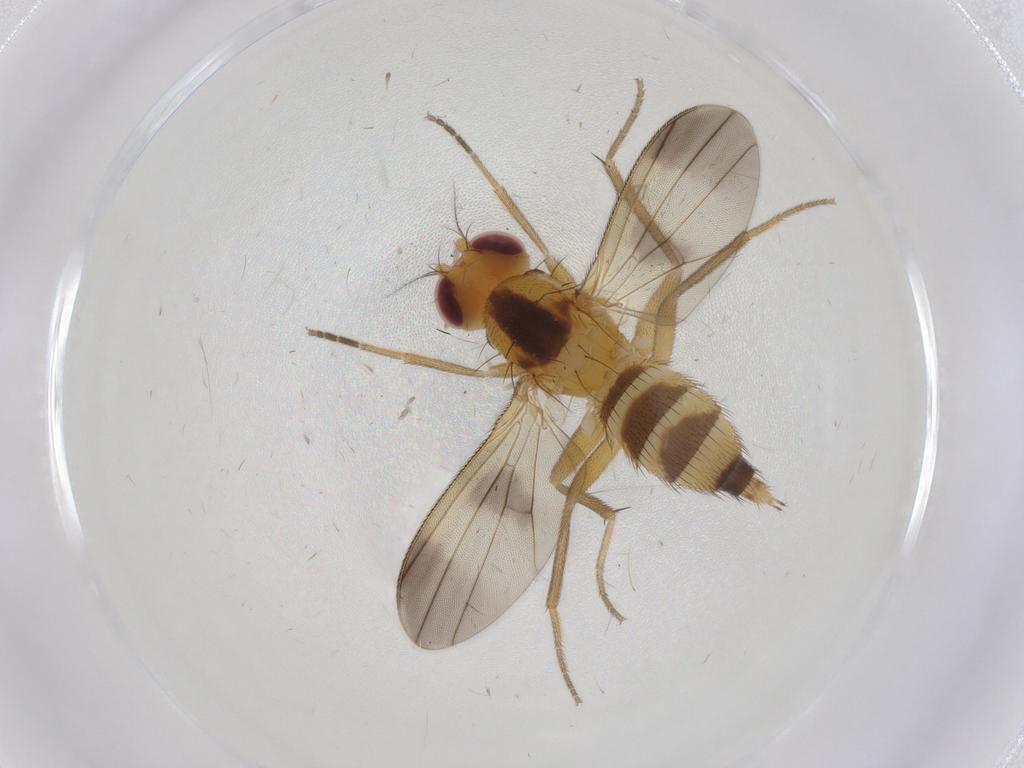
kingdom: Animalia
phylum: Arthropoda
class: Insecta
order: Diptera
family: Clusiidae
